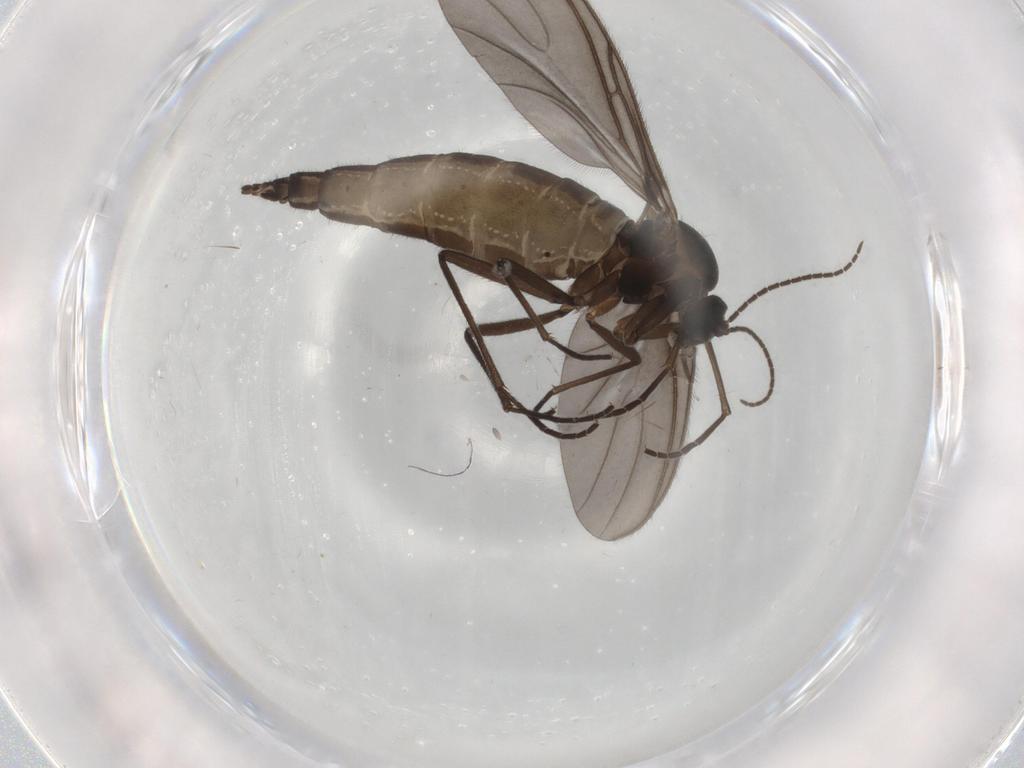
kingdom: Animalia
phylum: Arthropoda
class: Insecta
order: Diptera
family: Sciaridae
